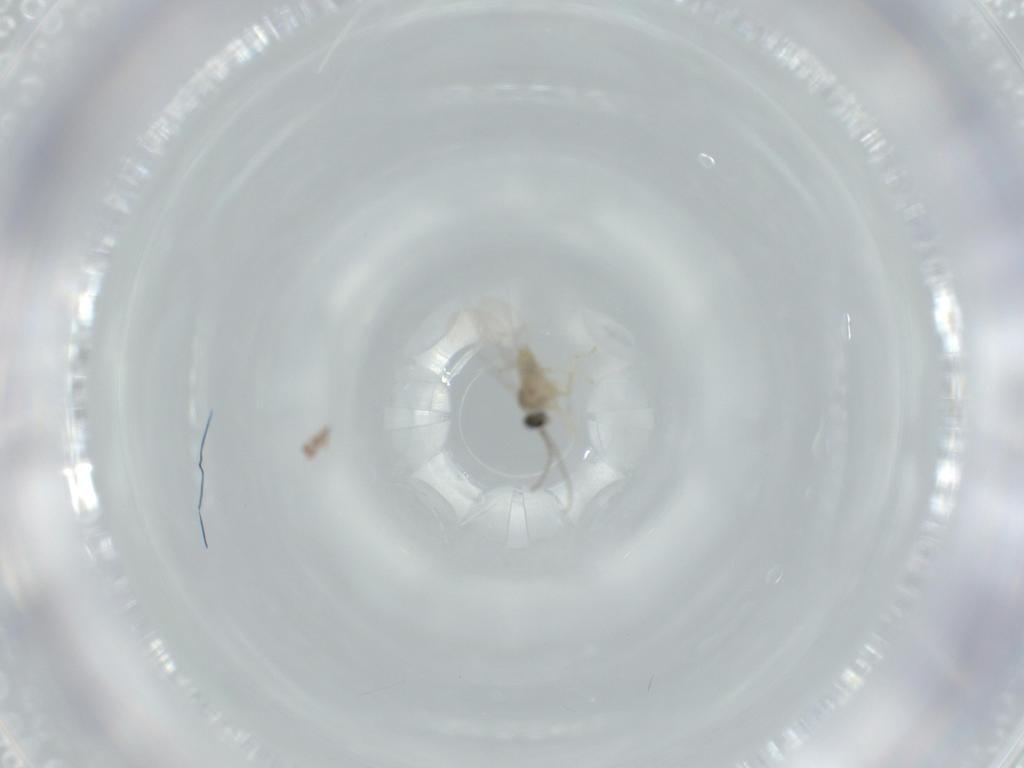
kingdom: Animalia
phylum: Arthropoda
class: Insecta
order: Diptera
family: Cecidomyiidae
